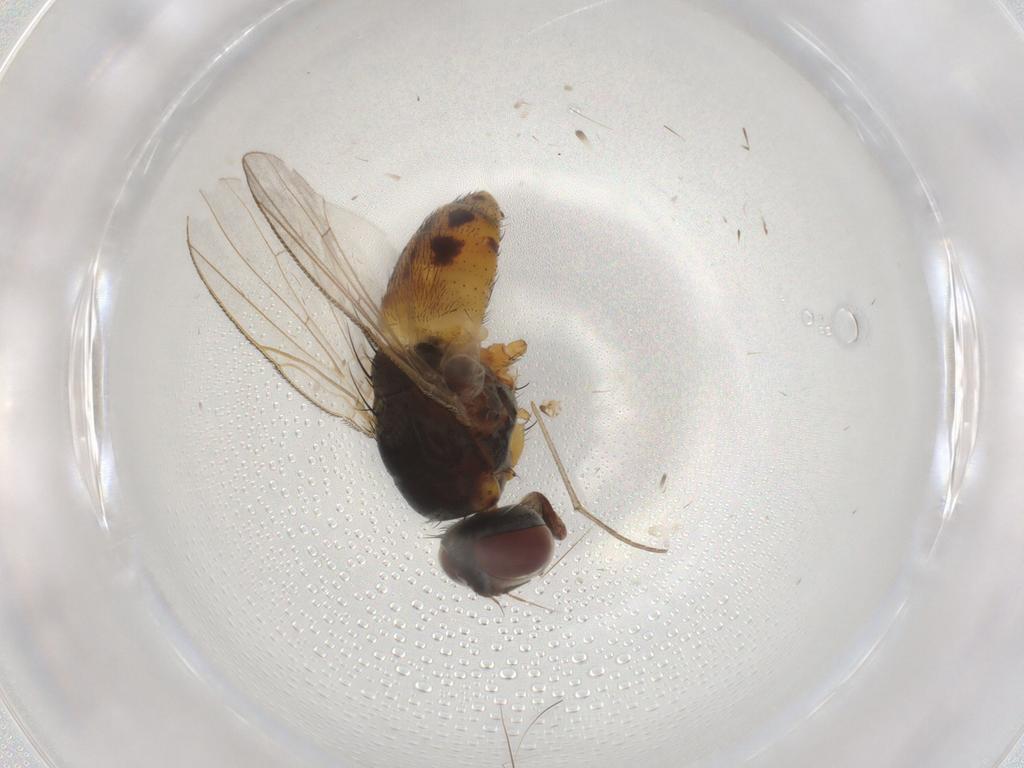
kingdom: Animalia
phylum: Arthropoda
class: Insecta
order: Diptera
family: Muscidae
